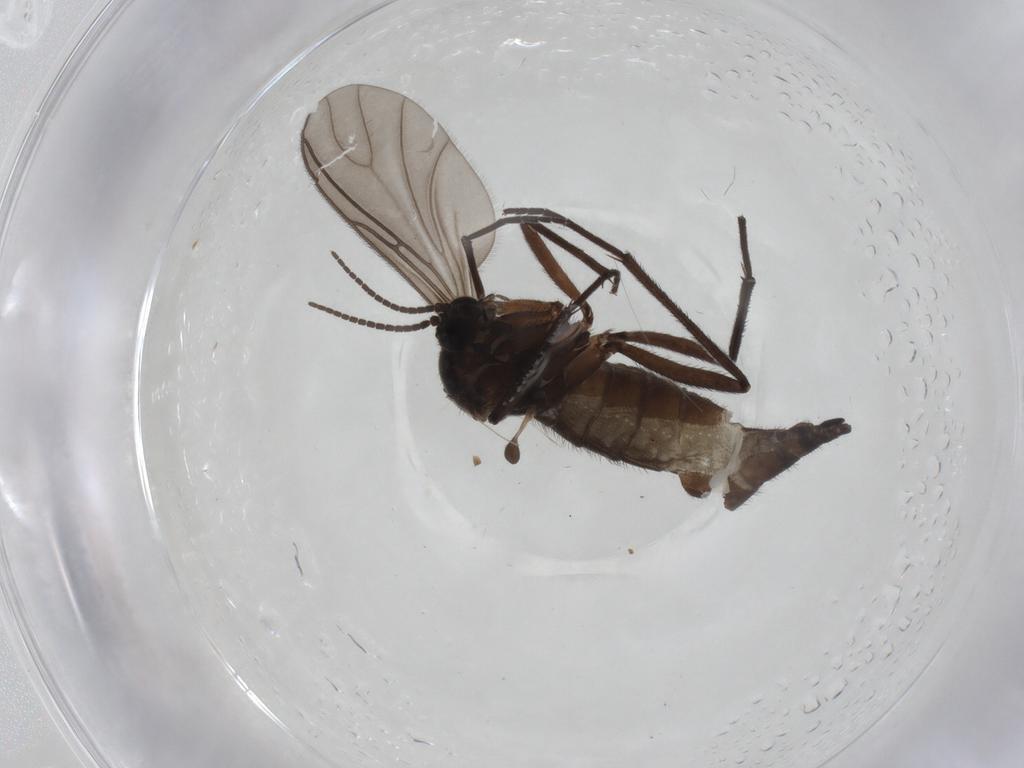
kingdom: Animalia
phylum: Arthropoda
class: Insecta
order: Diptera
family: Sciaridae
